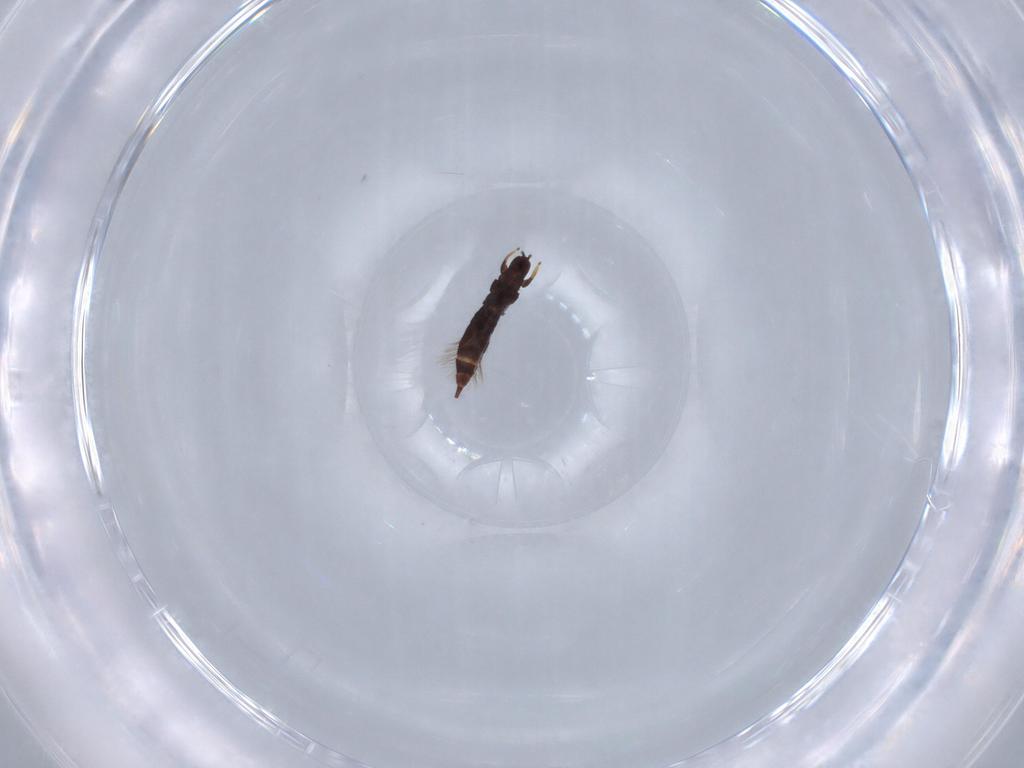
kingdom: Animalia
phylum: Arthropoda
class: Insecta
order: Thysanoptera
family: Phlaeothripidae
